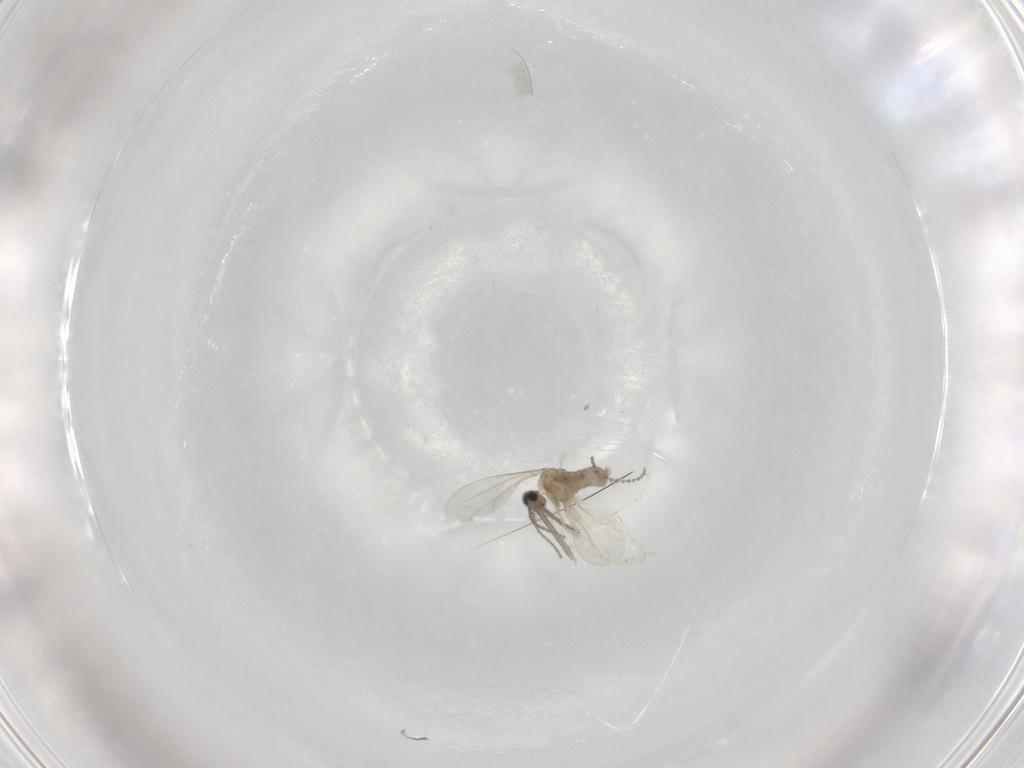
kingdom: Animalia
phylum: Arthropoda
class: Insecta
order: Diptera
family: Cecidomyiidae
